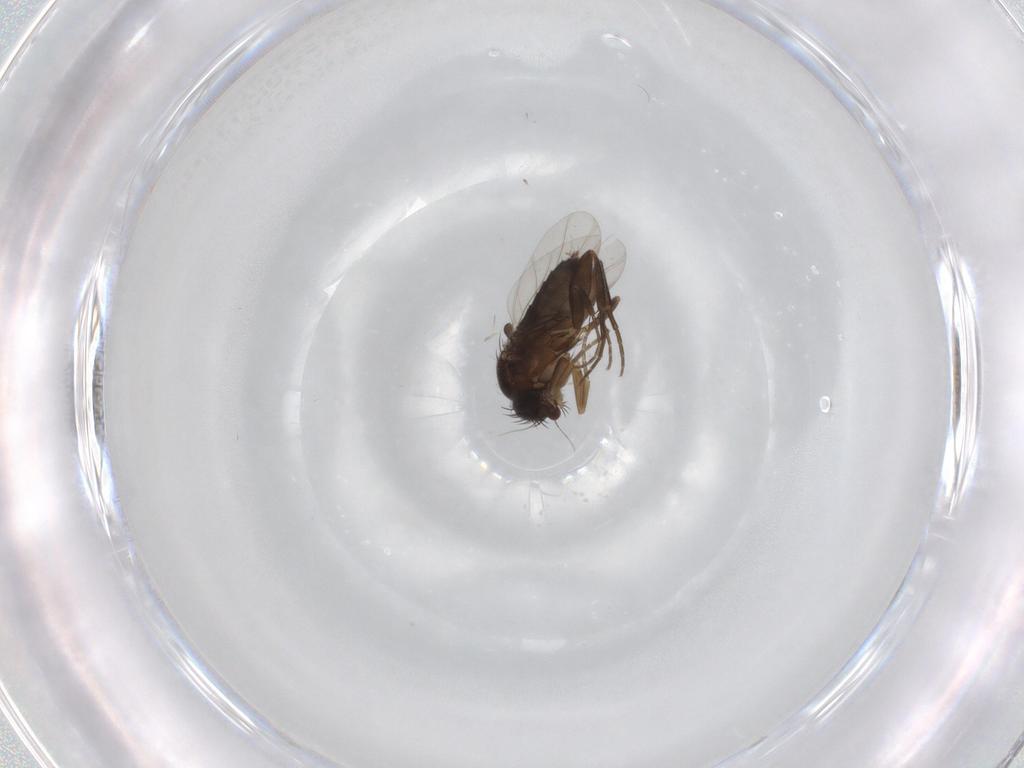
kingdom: Animalia
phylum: Arthropoda
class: Insecta
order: Diptera
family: Phoridae
